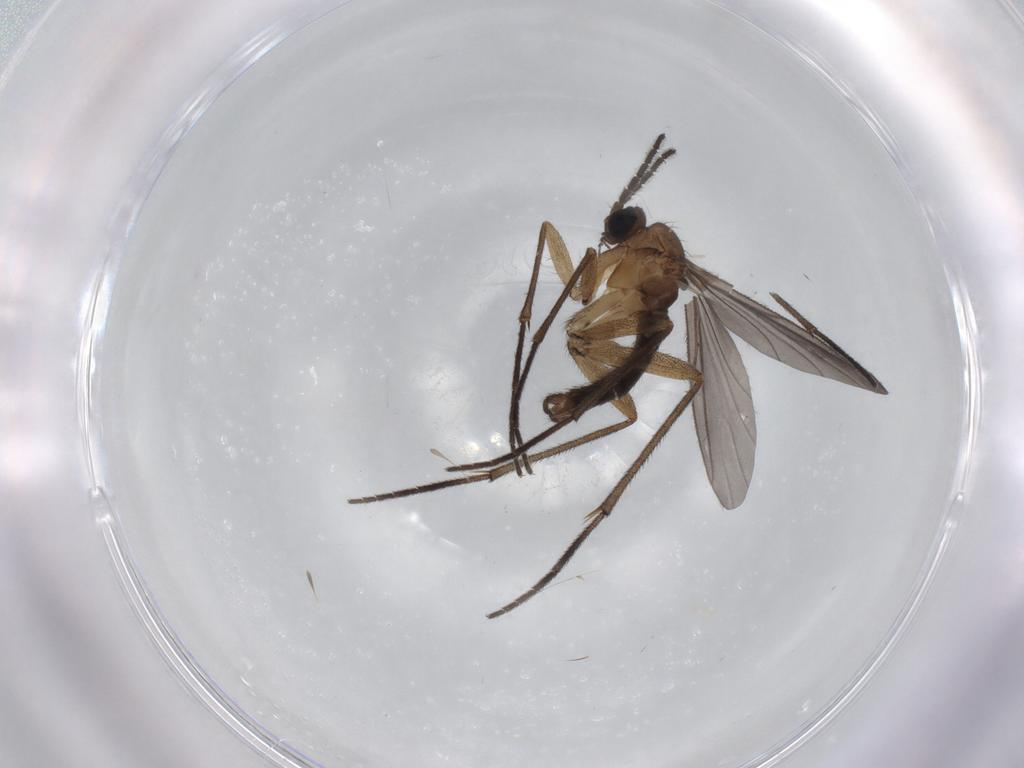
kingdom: Animalia
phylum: Arthropoda
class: Insecta
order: Diptera
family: Sciaridae
